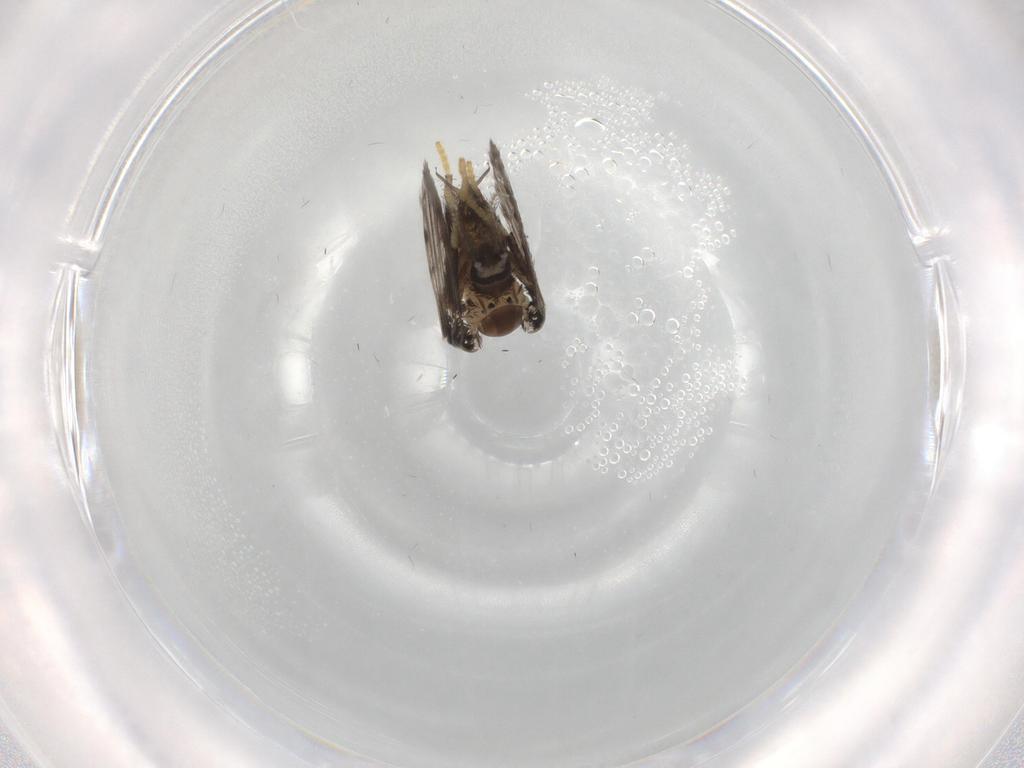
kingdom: Animalia
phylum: Arthropoda
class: Insecta
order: Diptera
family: Psychodidae
